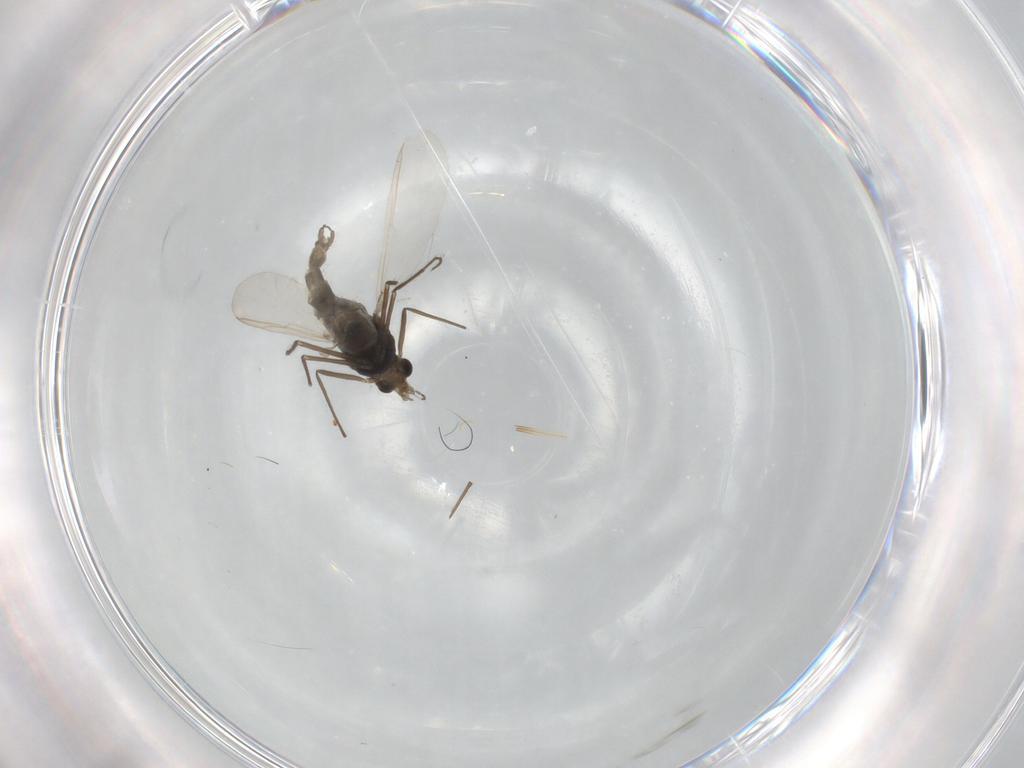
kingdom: Animalia
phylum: Arthropoda
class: Insecta
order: Diptera
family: Chironomidae
